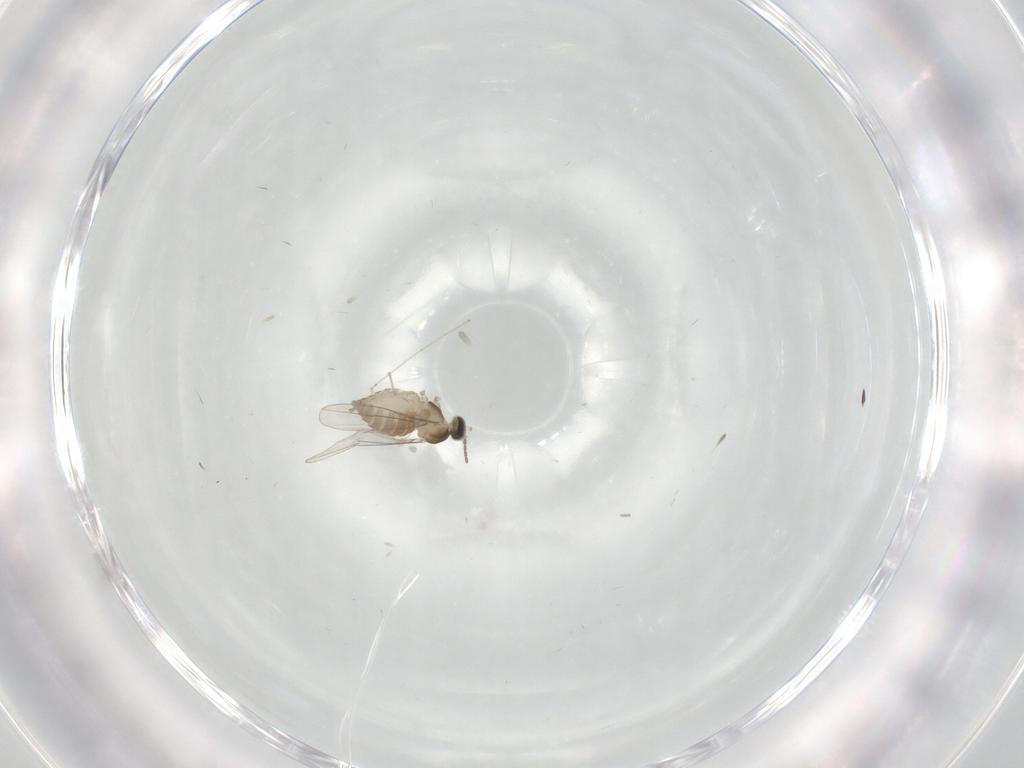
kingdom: Animalia
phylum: Arthropoda
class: Insecta
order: Diptera
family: Cecidomyiidae
